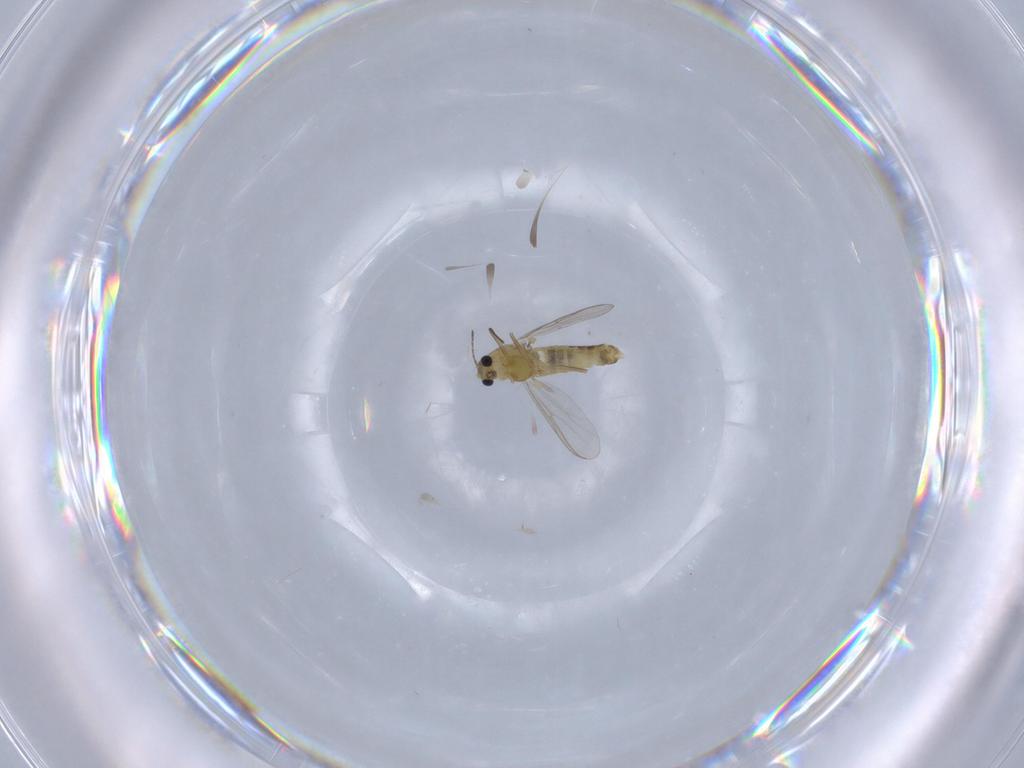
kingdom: Animalia
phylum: Arthropoda
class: Insecta
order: Diptera
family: Chironomidae
